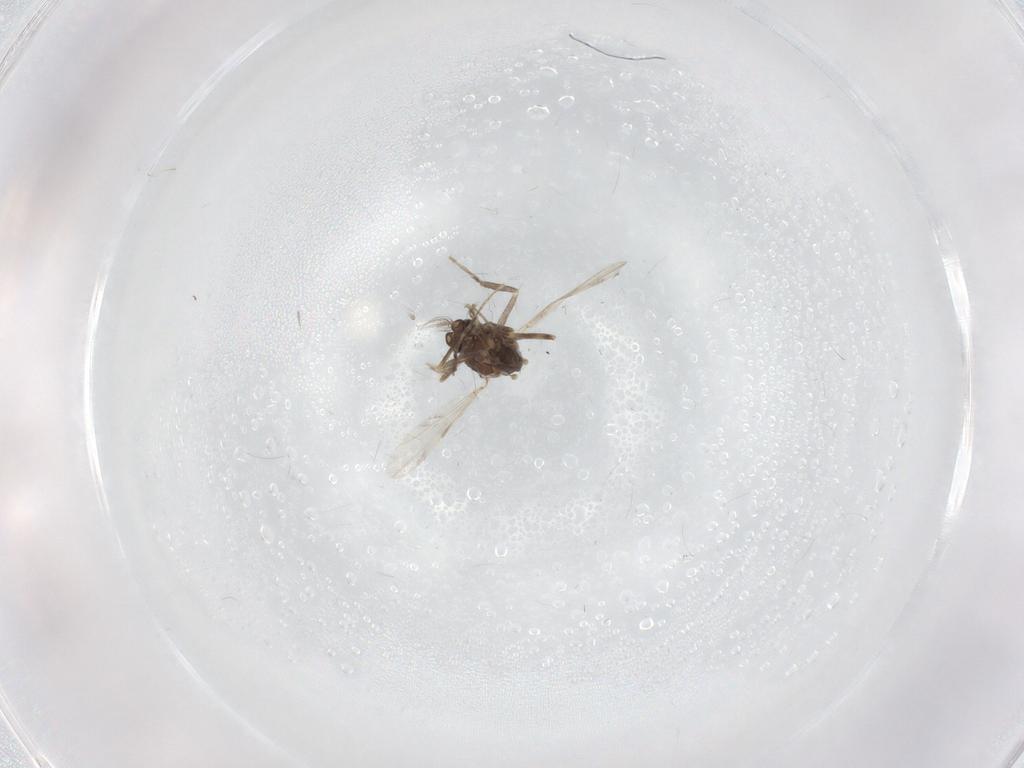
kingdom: Animalia
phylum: Arthropoda
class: Insecta
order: Diptera
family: Ceratopogonidae
